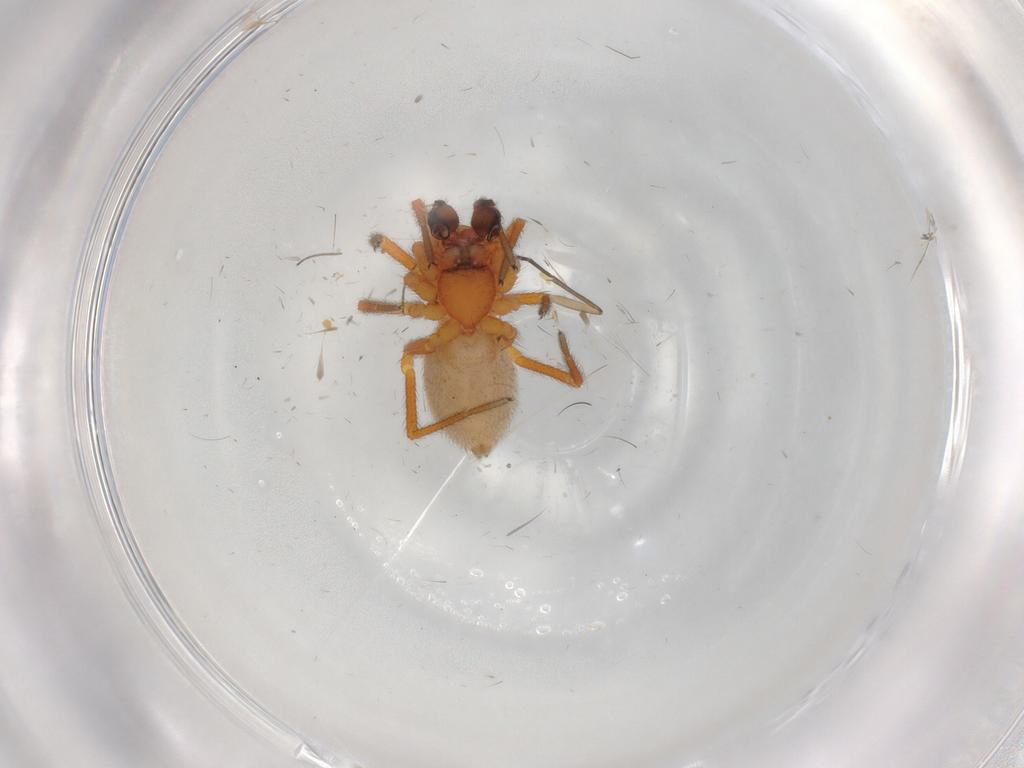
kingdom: Animalia
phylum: Arthropoda
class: Arachnida
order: Araneae
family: Linyphiidae
